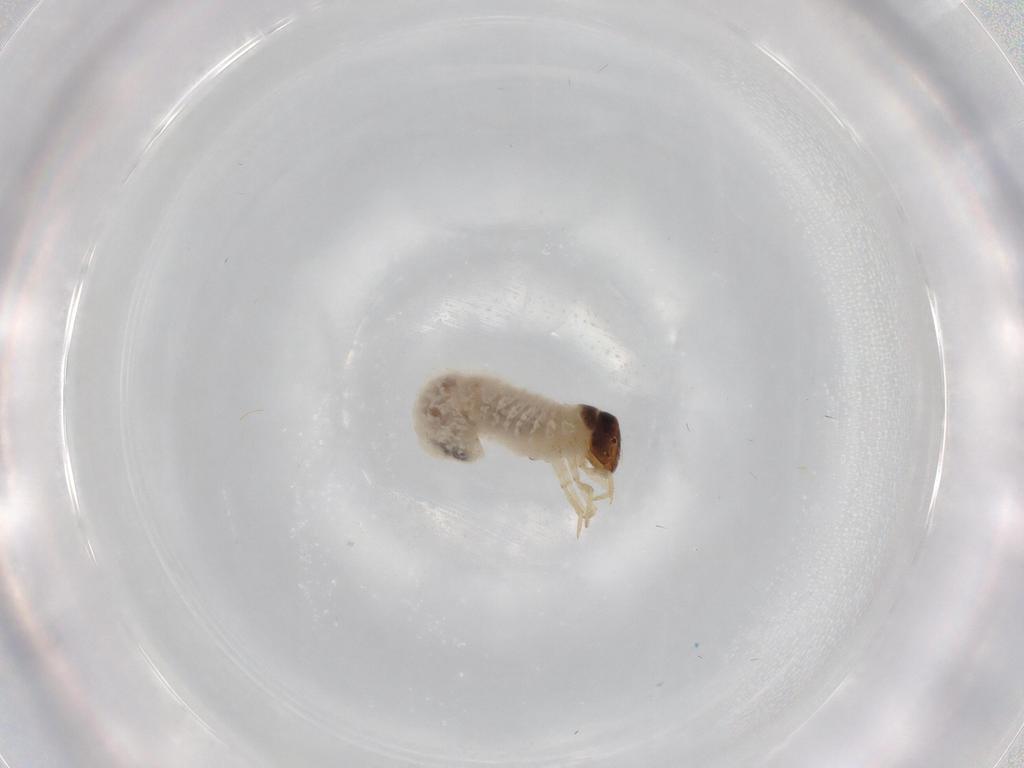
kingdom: Animalia
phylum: Arthropoda
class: Insecta
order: Coleoptera
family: Chrysomelidae
